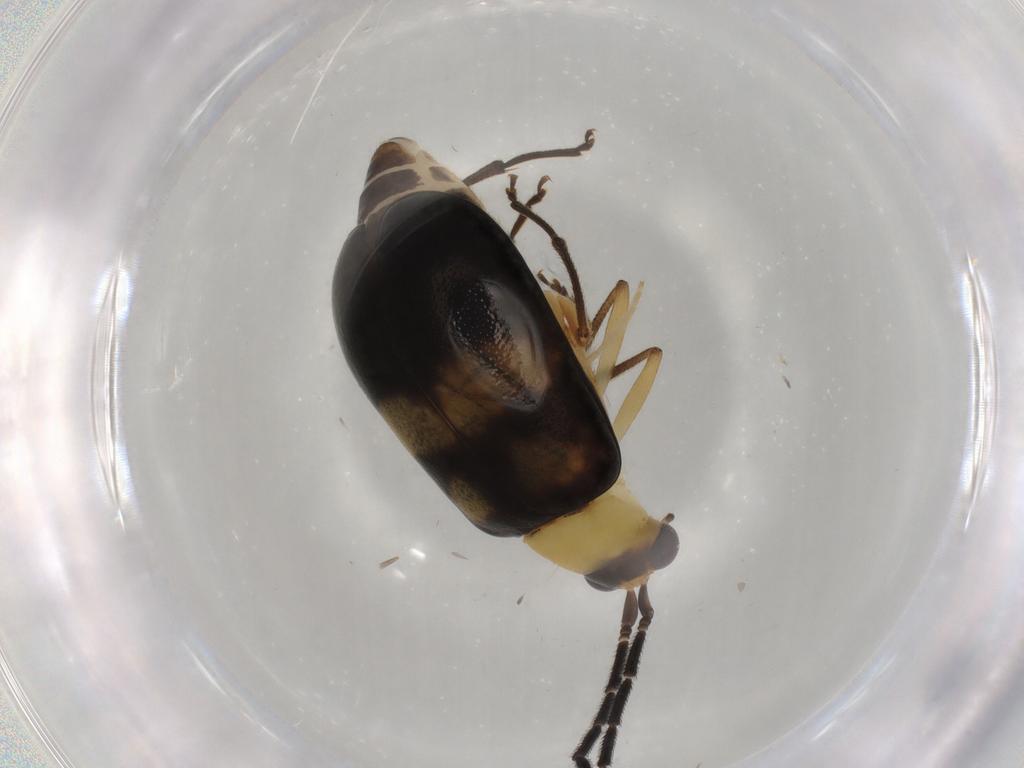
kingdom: Animalia
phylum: Arthropoda
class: Insecta
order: Coleoptera
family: Chrysomelidae
